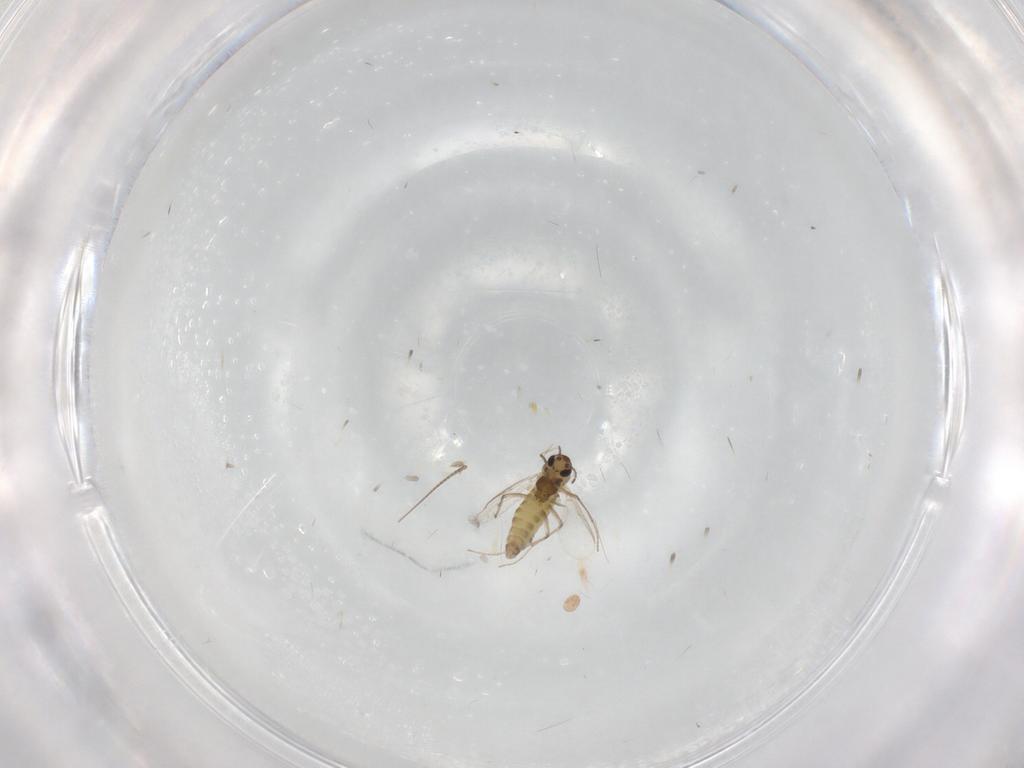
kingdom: Animalia
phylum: Arthropoda
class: Insecta
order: Diptera
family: Chironomidae
